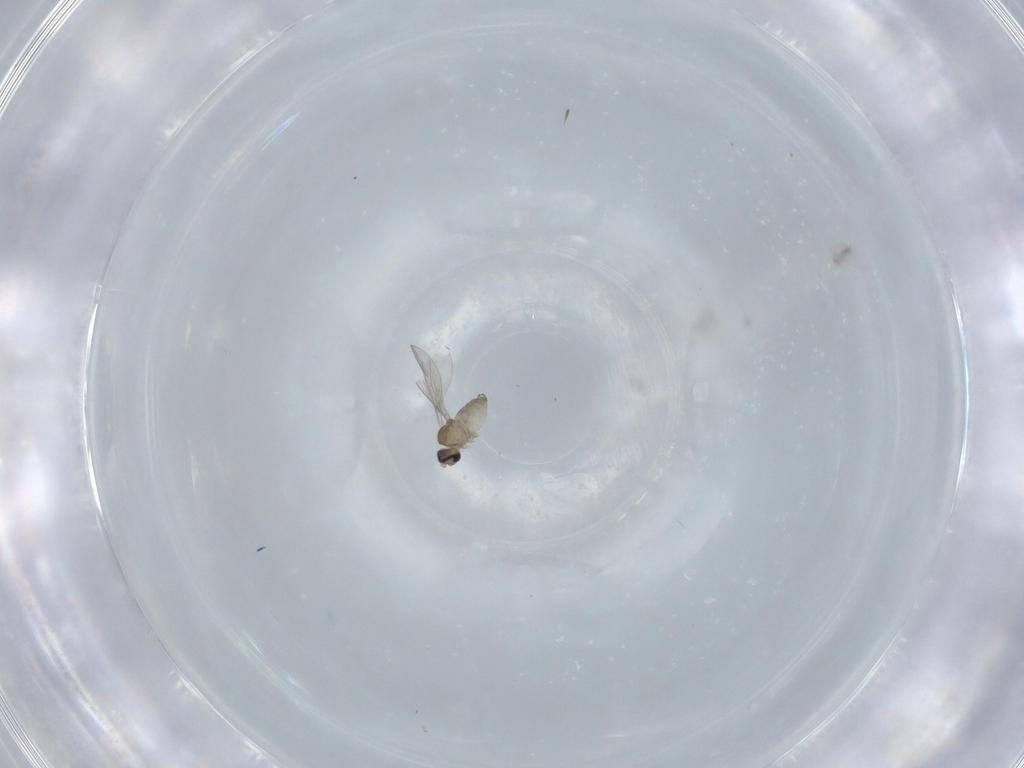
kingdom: Animalia
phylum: Arthropoda
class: Insecta
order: Diptera
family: Cecidomyiidae
